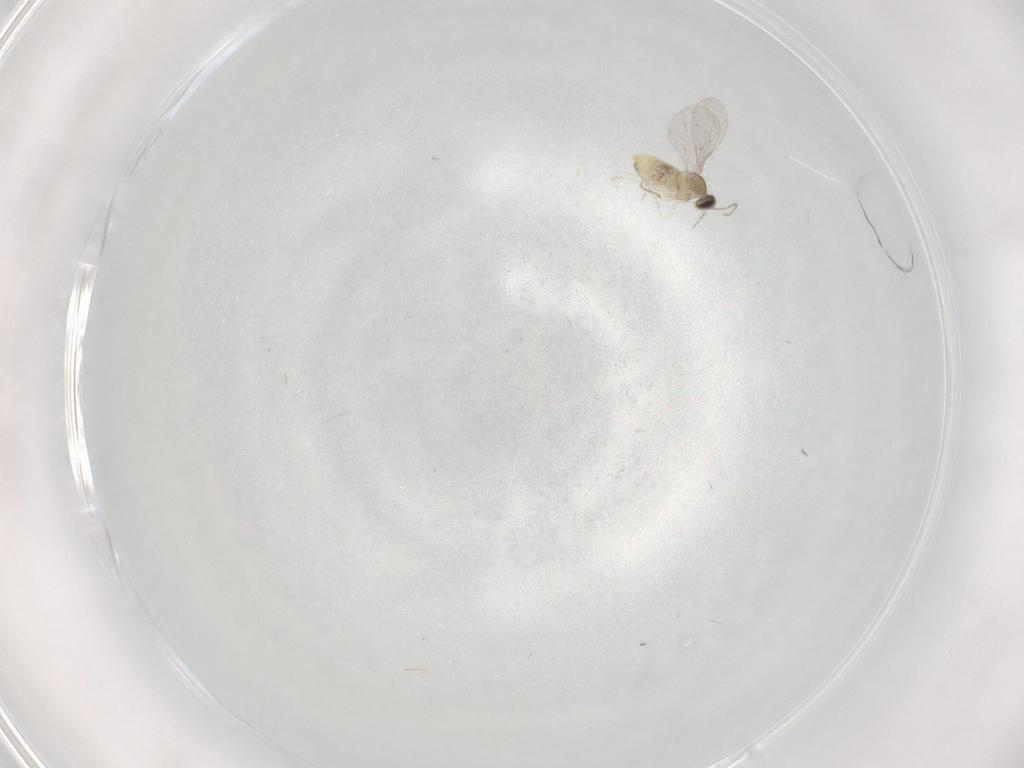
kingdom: Animalia
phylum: Arthropoda
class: Insecta
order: Diptera
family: Cecidomyiidae
